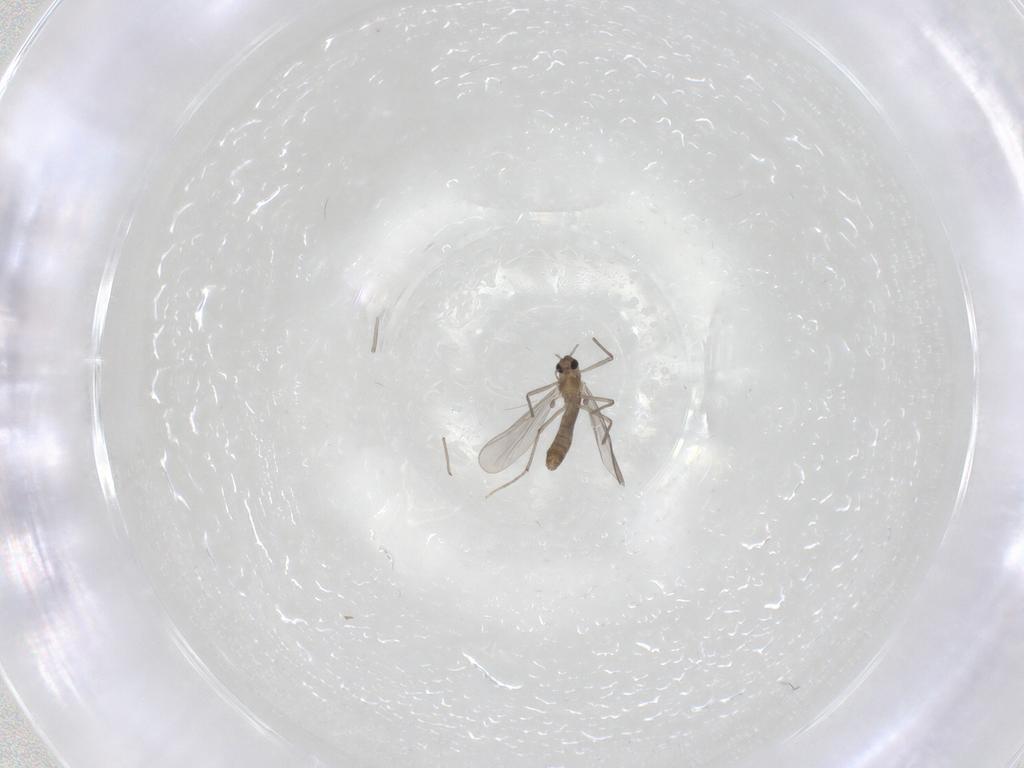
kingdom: Animalia
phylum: Arthropoda
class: Insecta
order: Diptera
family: Chironomidae
